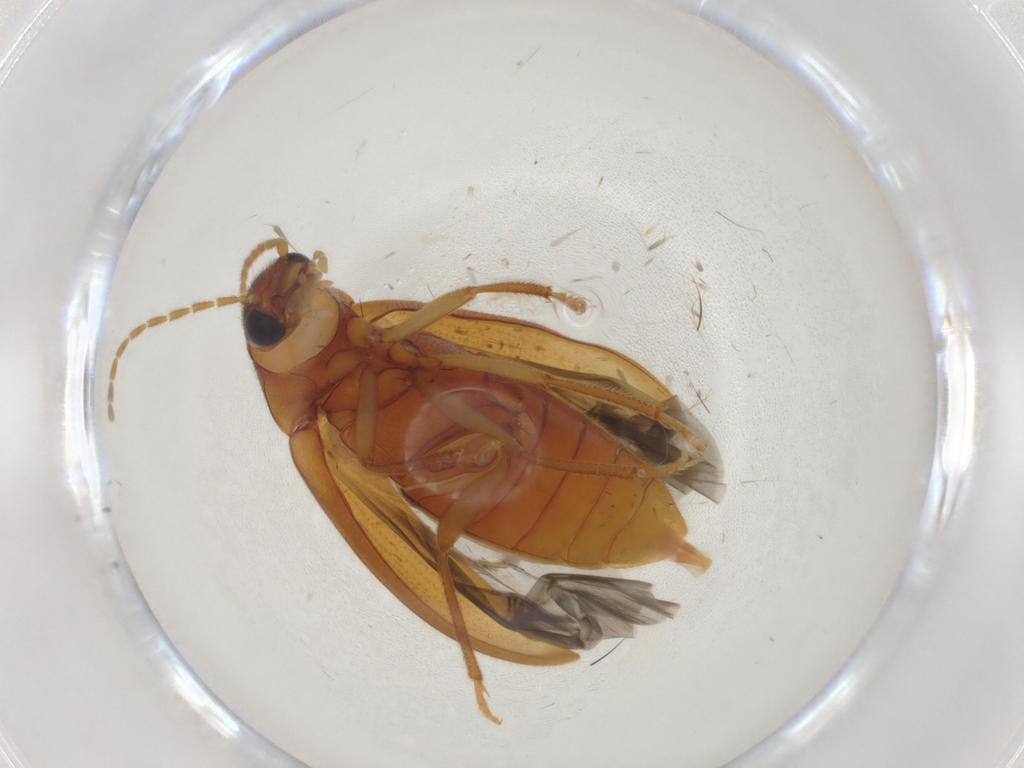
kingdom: Animalia
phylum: Arthropoda
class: Insecta
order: Coleoptera
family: Ptilodactylidae
